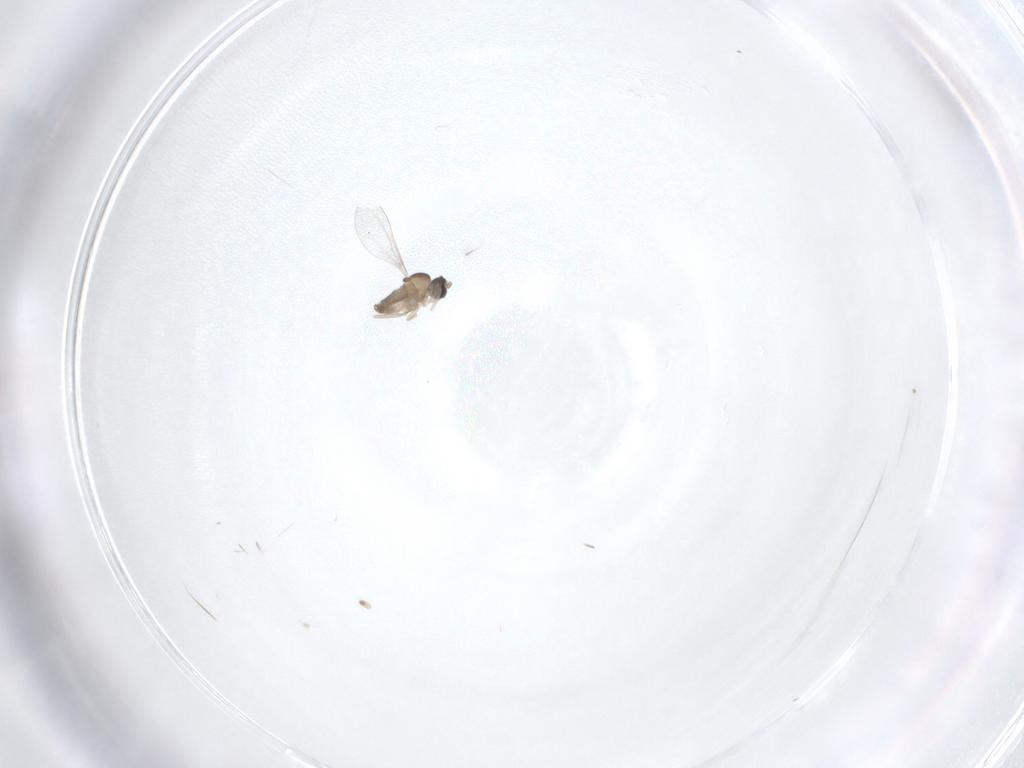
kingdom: Animalia
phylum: Arthropoda
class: Insecta
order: Diptera
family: Cecidomyiidae
